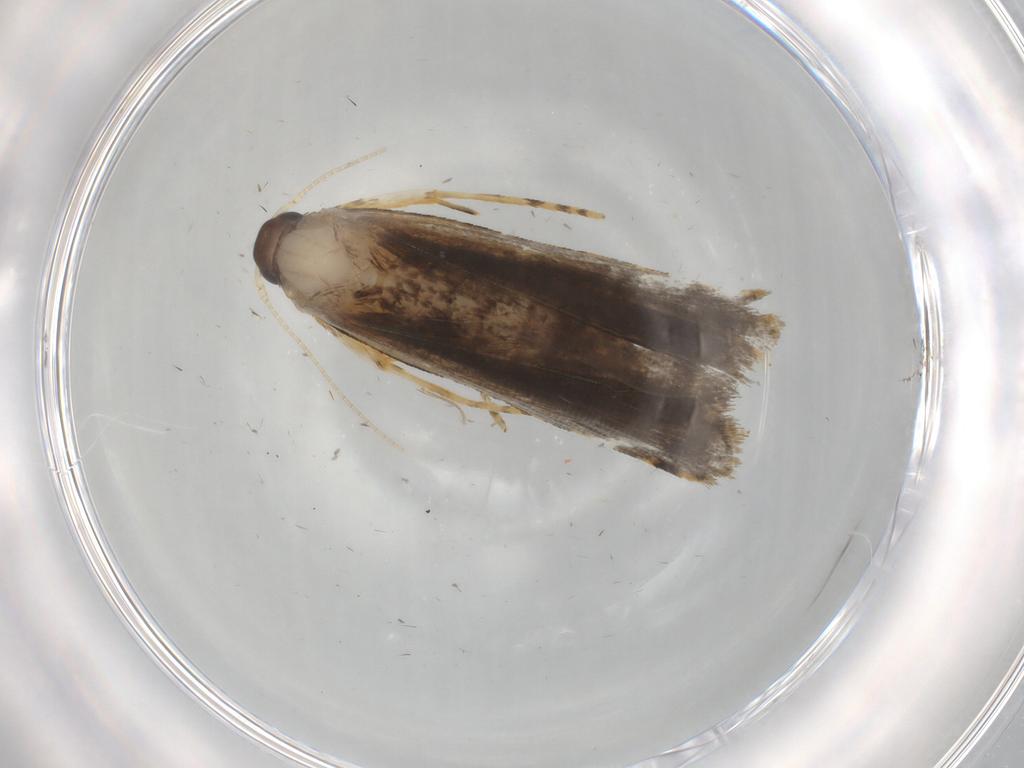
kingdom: Animalia
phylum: Arthropoda
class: Insecta
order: Lepidoptera
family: Cosmopterigidae
